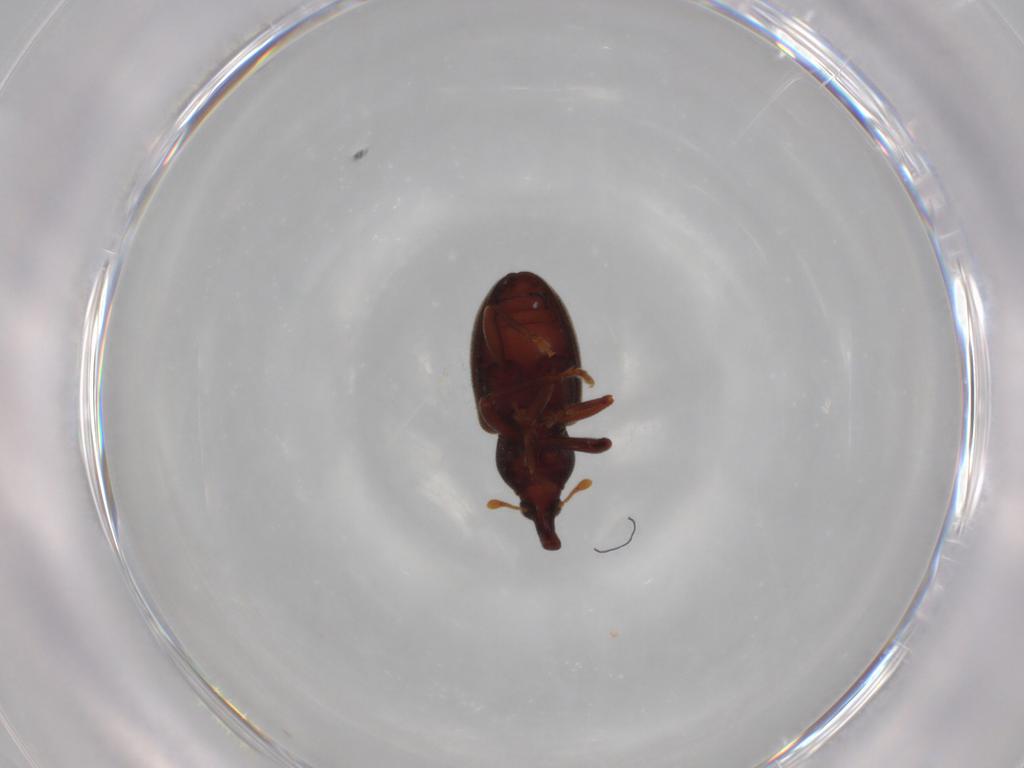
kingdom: Animalia
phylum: Arthropoda
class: Insecta
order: Coleoptera
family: Curculionidae
